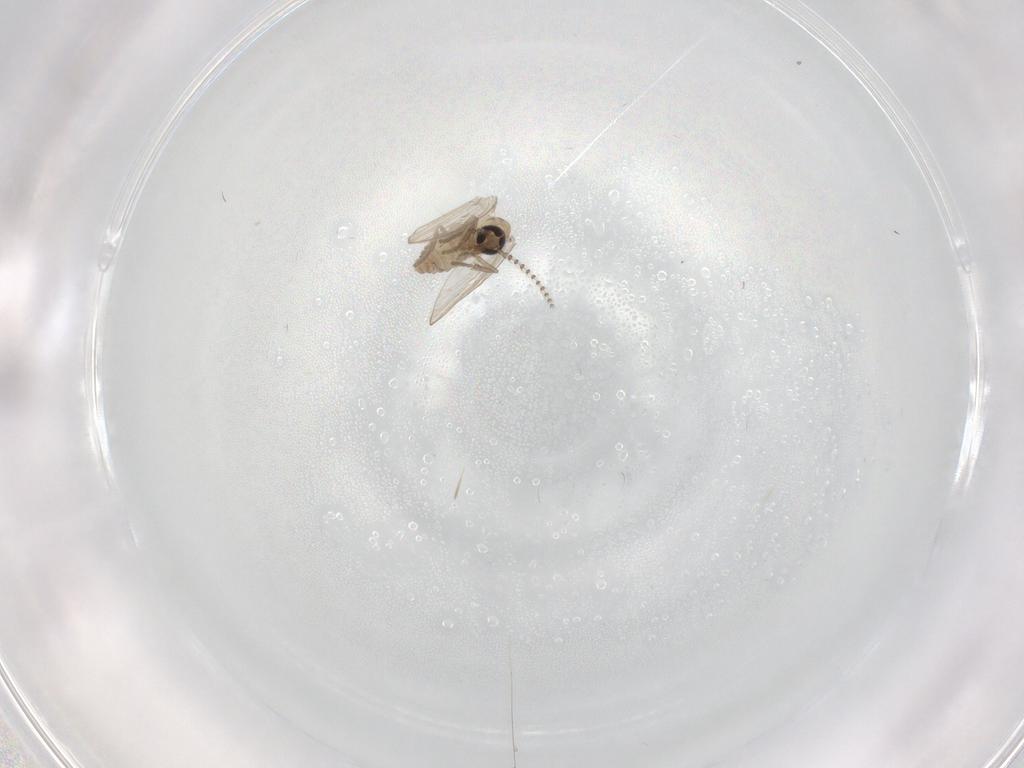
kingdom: Animalia
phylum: Arthropoda
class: Insecta
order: Diptera
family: Psychodidae
